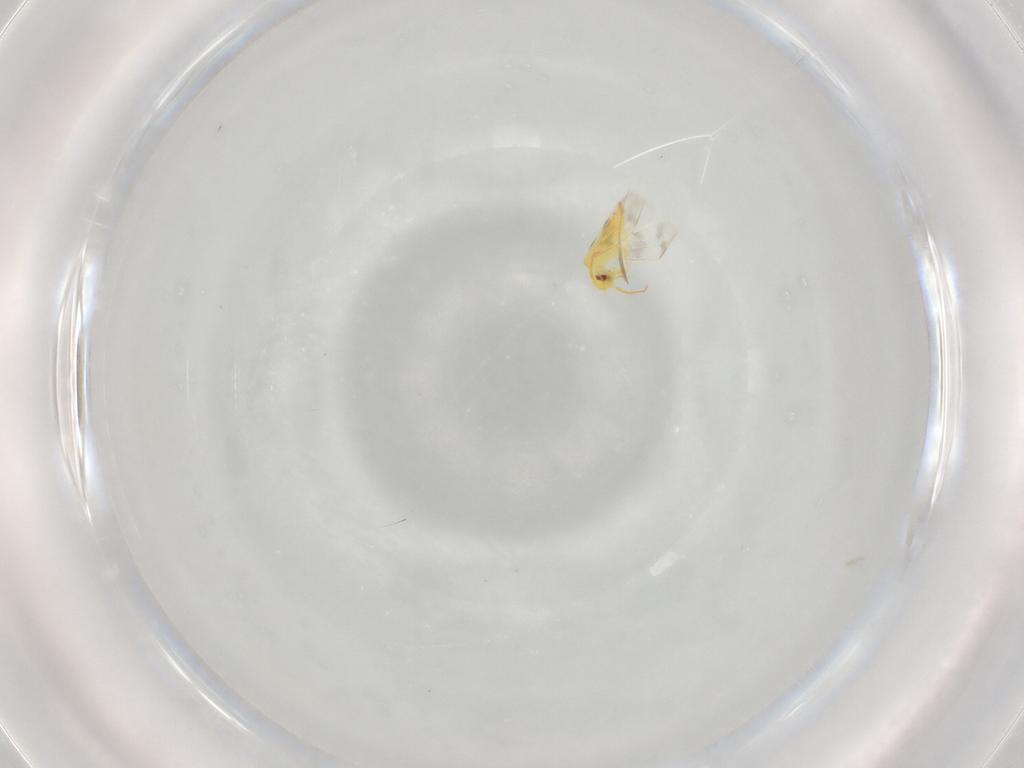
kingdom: Animalia
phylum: Arthropoda
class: Insecta
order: Hemiptera
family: Aleyrodidae
